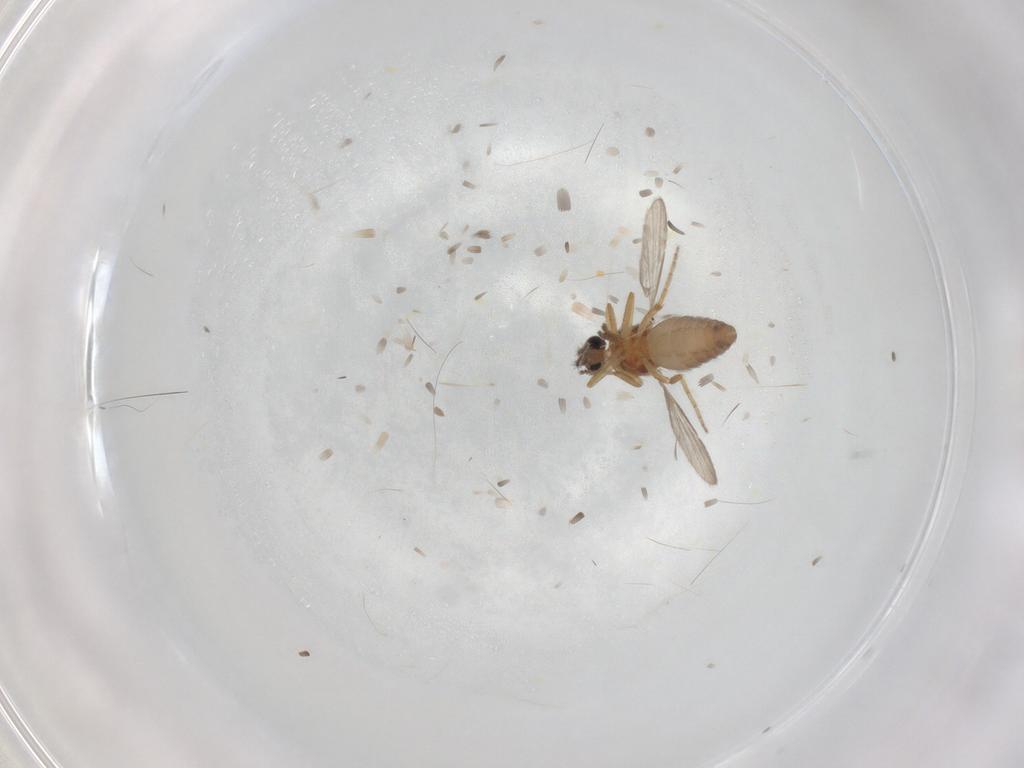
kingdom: Animalia
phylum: Arthropoda
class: Insecta
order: Diptera
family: Ceratopogonidae
